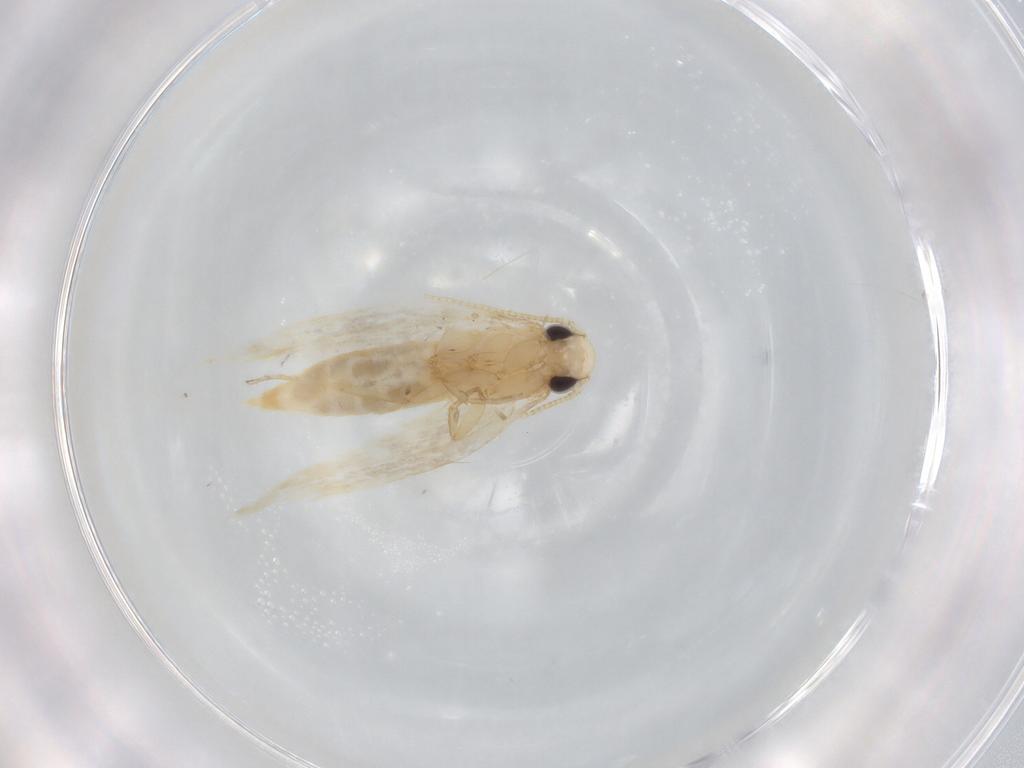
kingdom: Animalia
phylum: Arthropoda
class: Insecta
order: Lepidoptera
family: Tineidae
